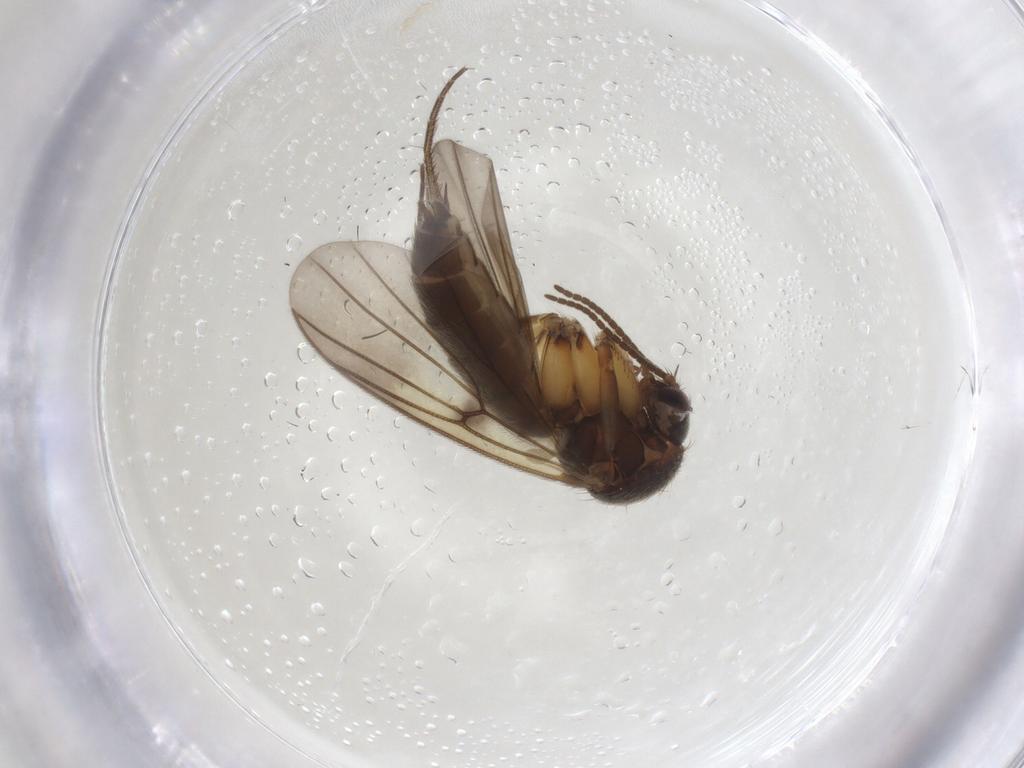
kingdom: Animalia
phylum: Arthropoda
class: Insecta
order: Diptera
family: Mycetophilidae
